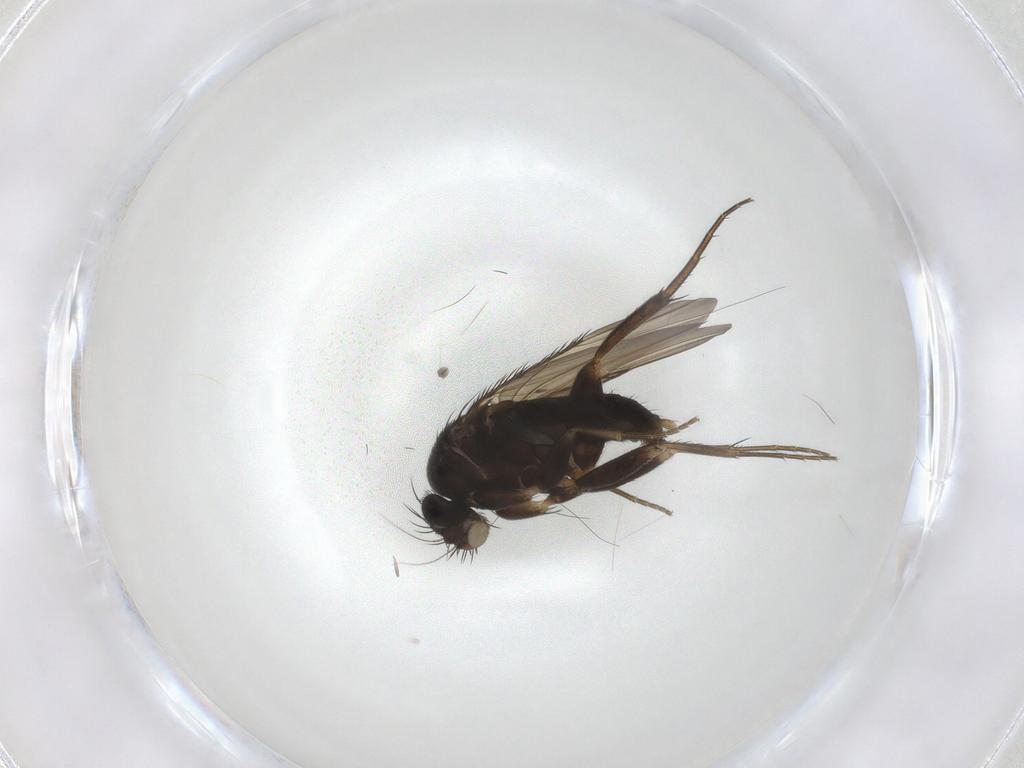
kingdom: Animalia
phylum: Arthropoda
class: Insecta
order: Diptera
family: Phoridae
